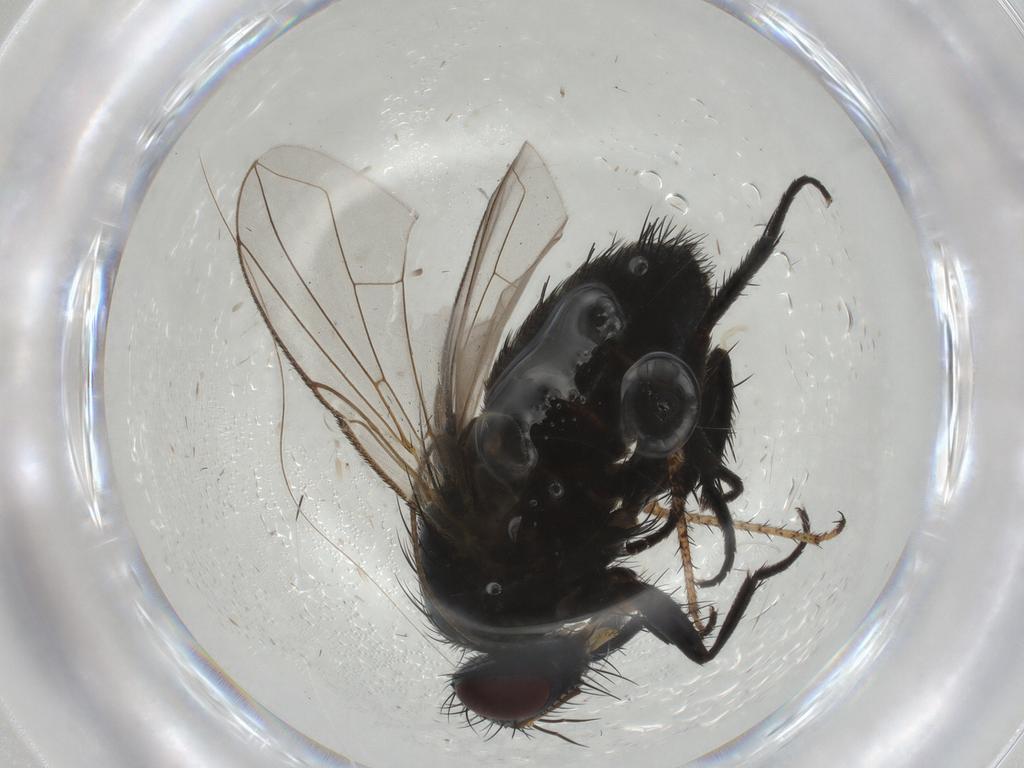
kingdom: Animalia
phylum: Arthropoda
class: Insecta
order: Diptera
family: Tachinidae
